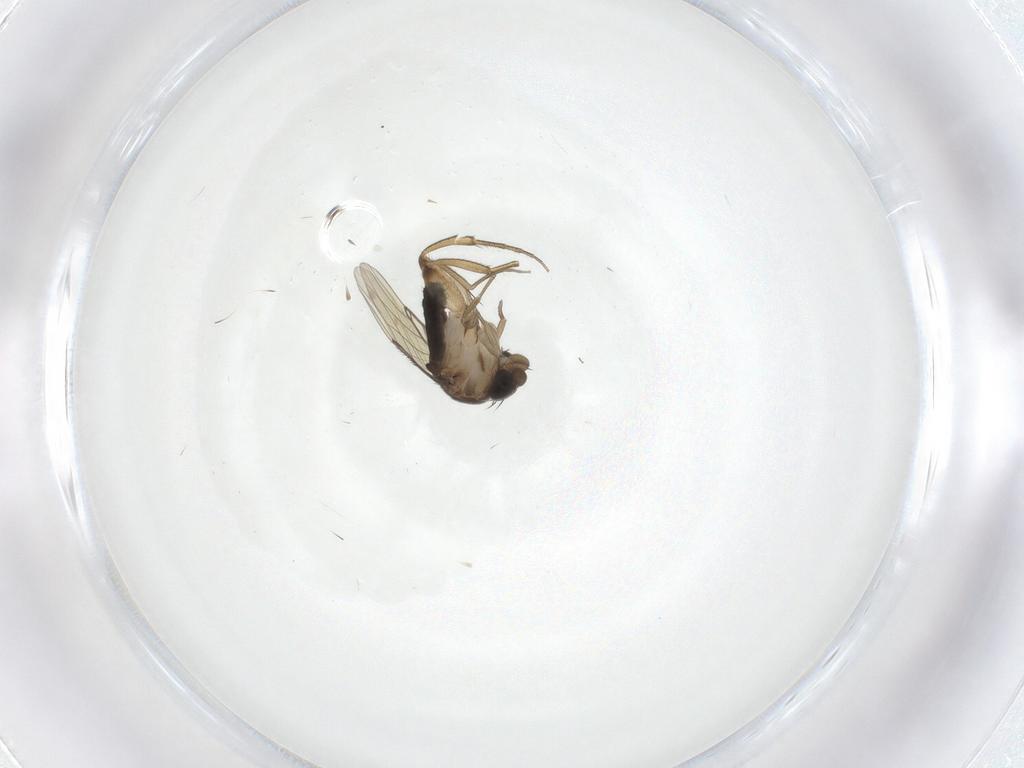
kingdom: Animalia
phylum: Arthropoda
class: Insecta
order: Diptera
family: Phoridae
